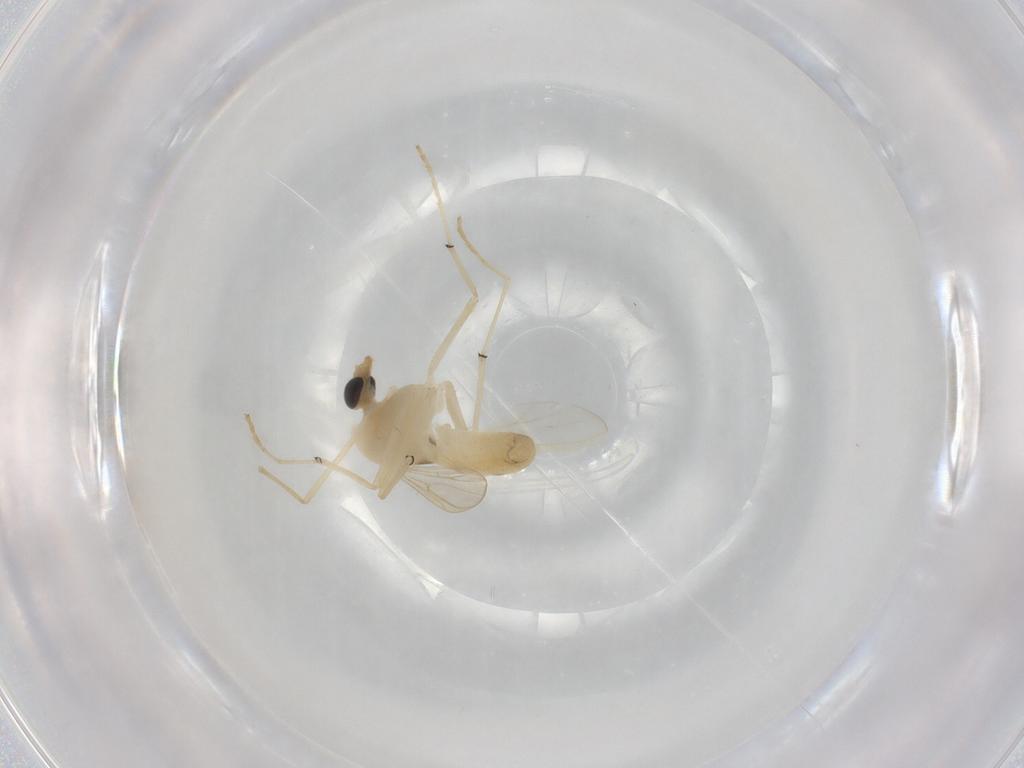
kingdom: Animalia
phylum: Arthropoda
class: Insecta
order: Diptera
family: Chironomidae
